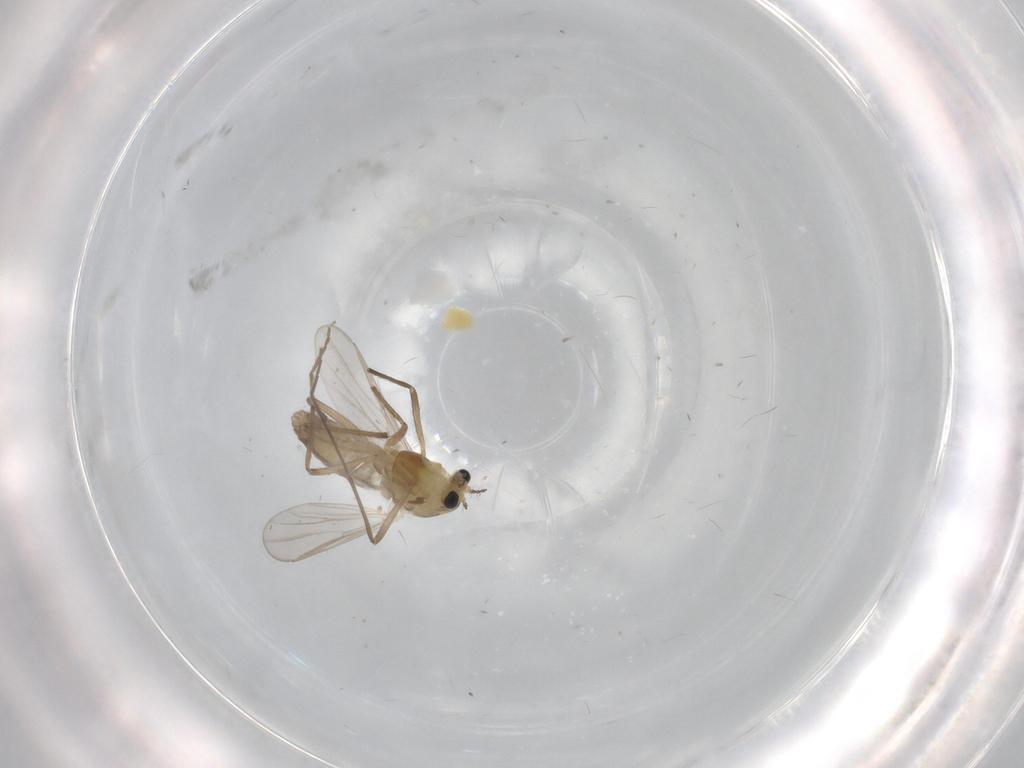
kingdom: Animalia
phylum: Arthropoda
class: Insecta
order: Diptera
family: Chironomidae
